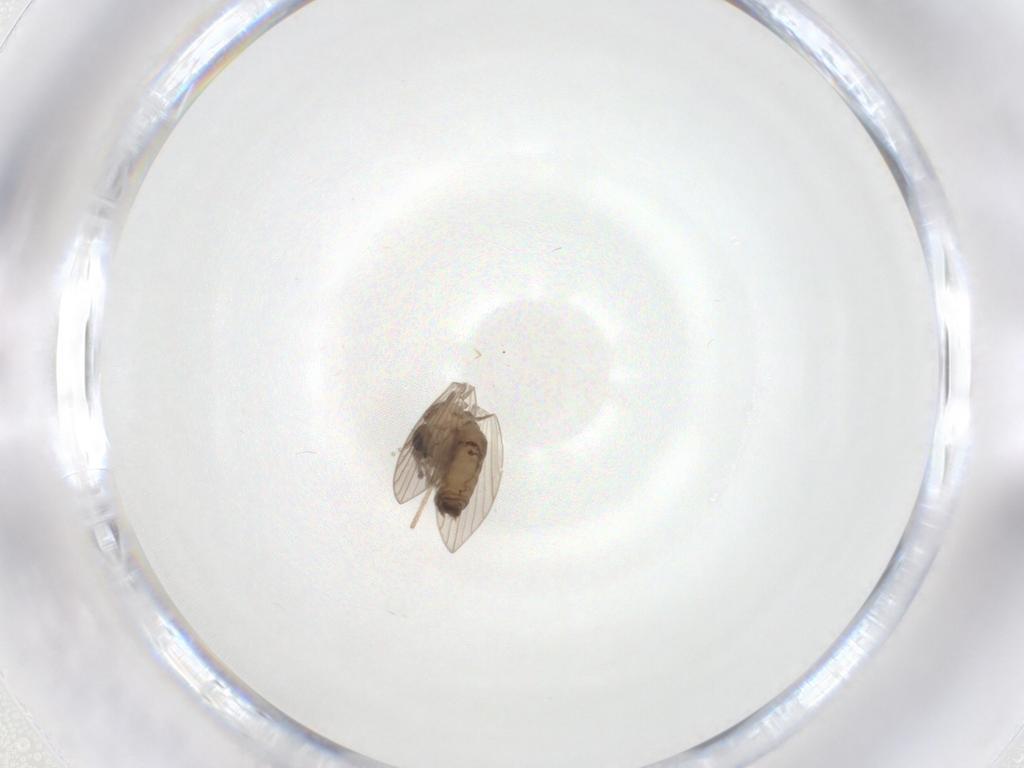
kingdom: Animalia
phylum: Arthropoda
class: Insecta
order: Diptera
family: Psychodidae
